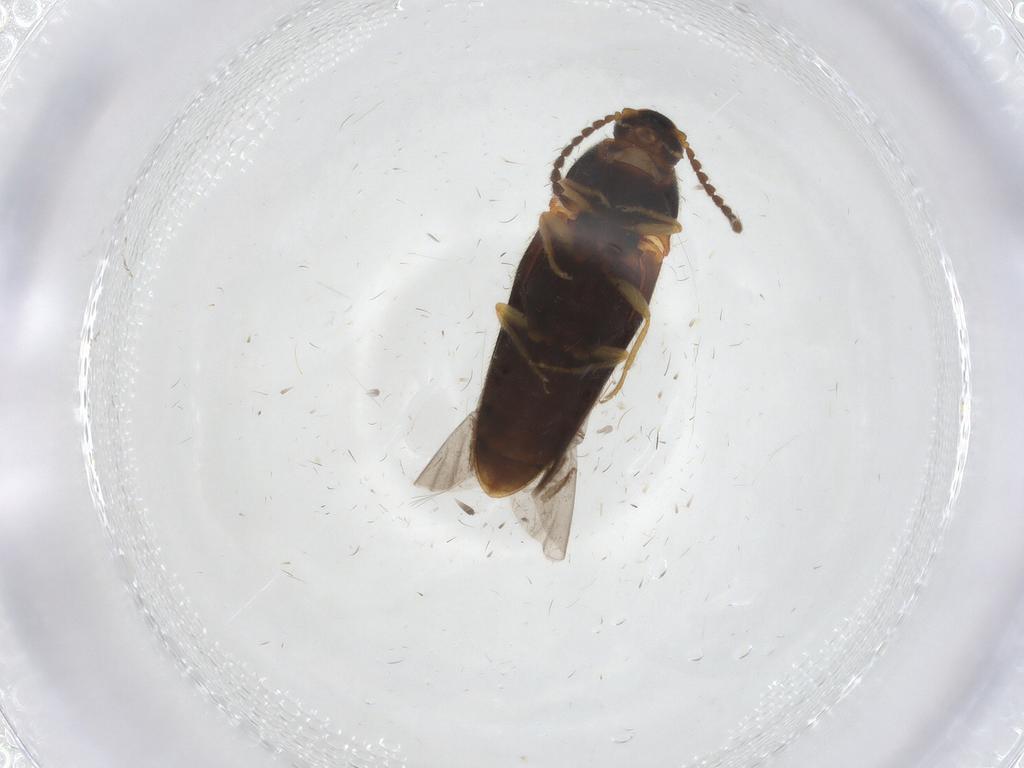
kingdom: Animalia
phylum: Arthropoda
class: Insecta
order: Coleoptera
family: Elateridae
